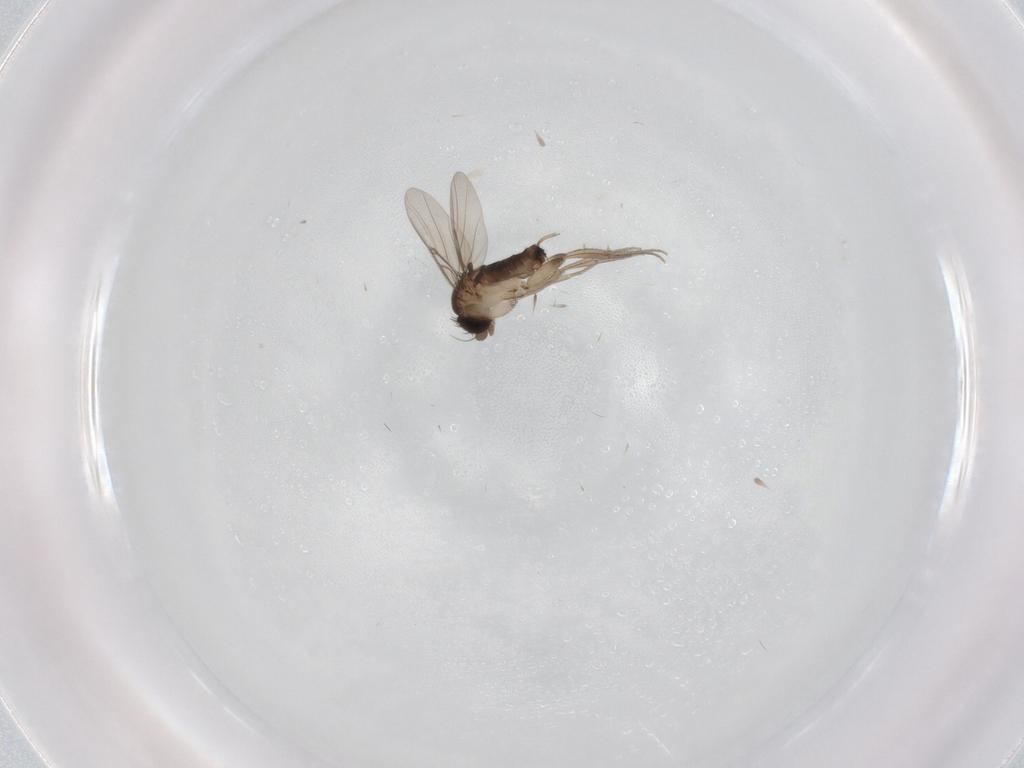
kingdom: Animalia
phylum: Arthropoda
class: Insecta
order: Diptera
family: Phoridae
